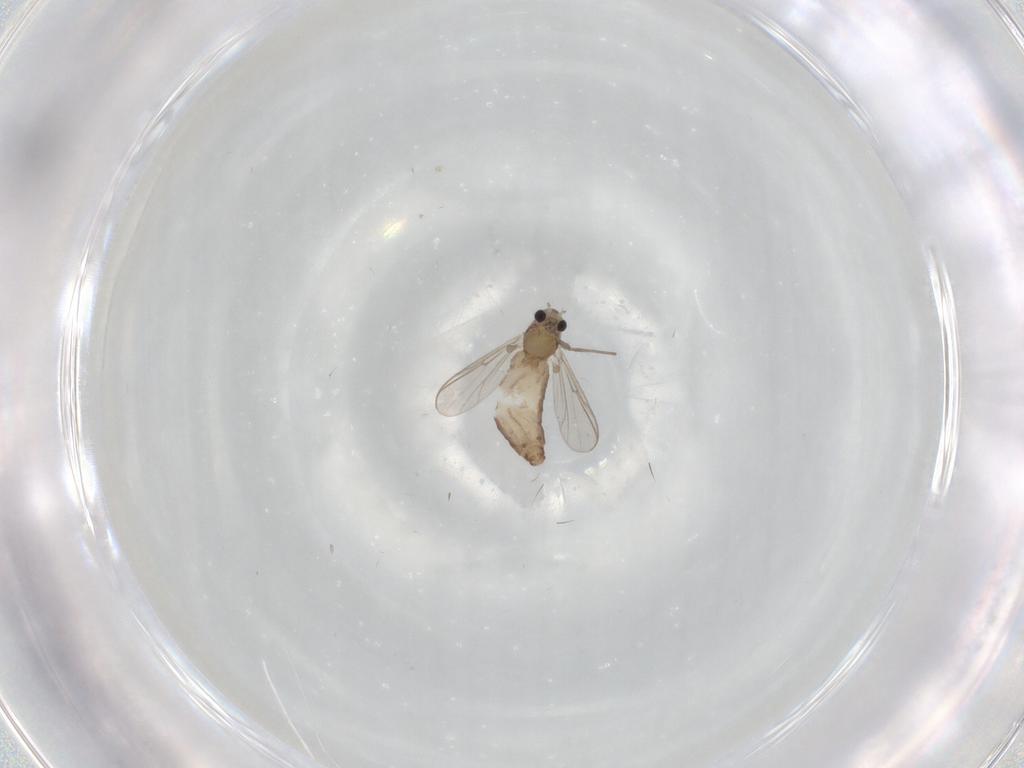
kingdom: Animalia
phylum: Arthropoda
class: Insecta
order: Diptera
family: Chironomidae
